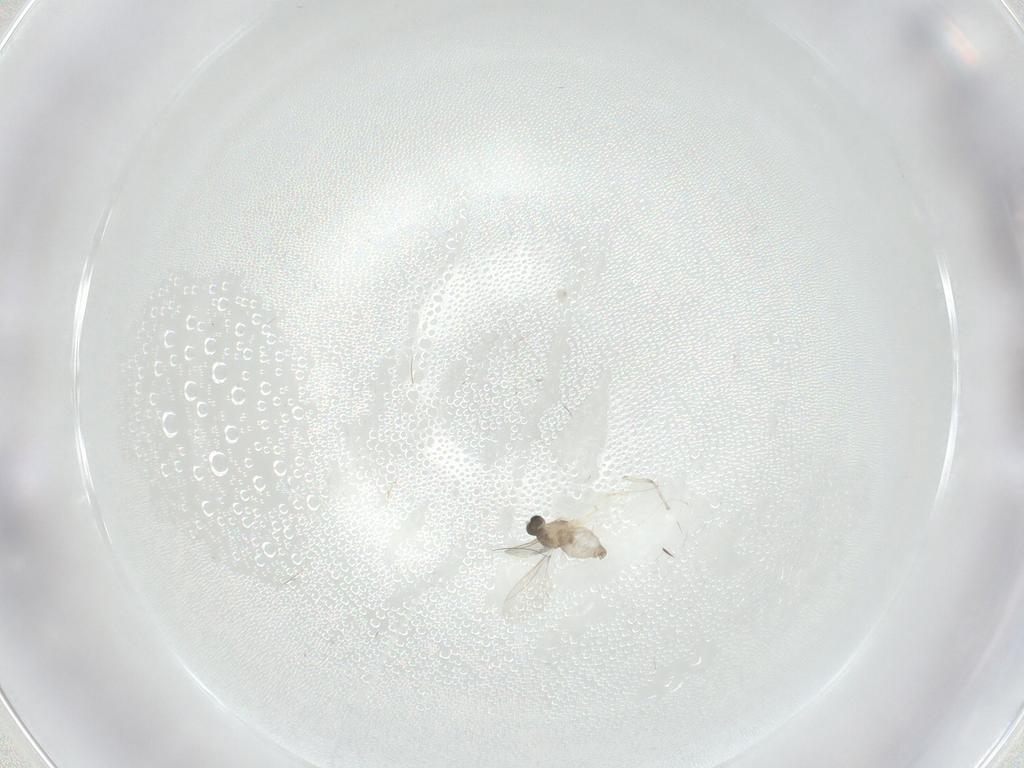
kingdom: Animalia
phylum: Arthropoda
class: Insecta
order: Diptera
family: Cecidomyiidae
